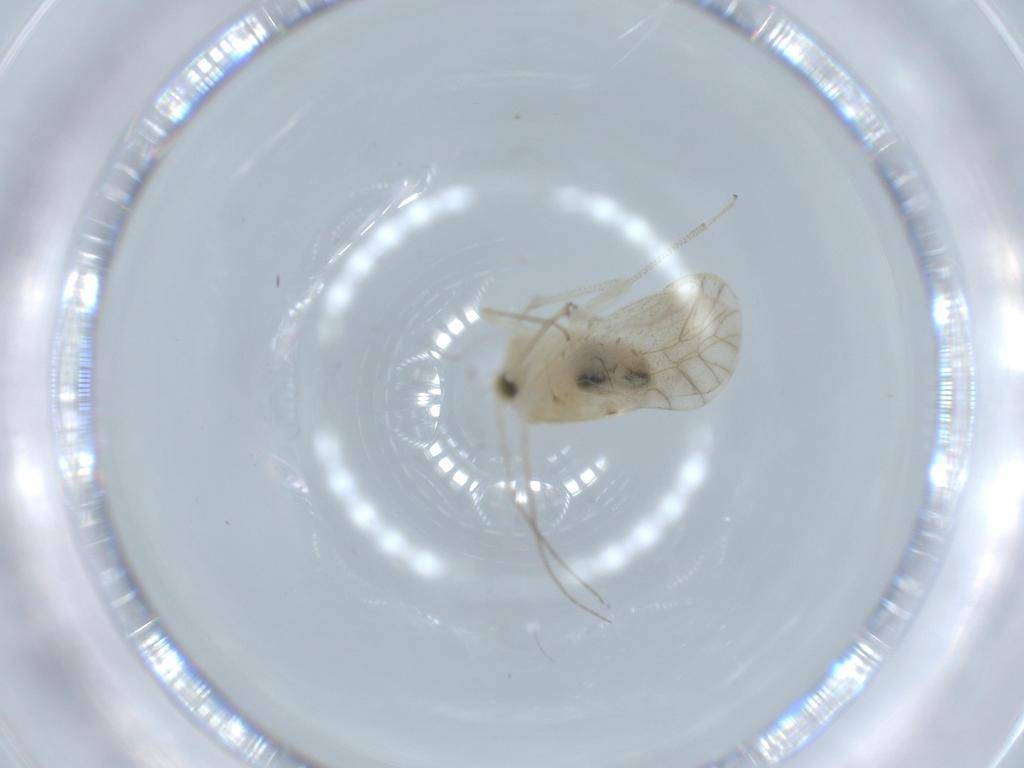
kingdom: Animalia
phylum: Arthropoda
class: Insecta
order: Psocodea
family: Caeciliusidae
